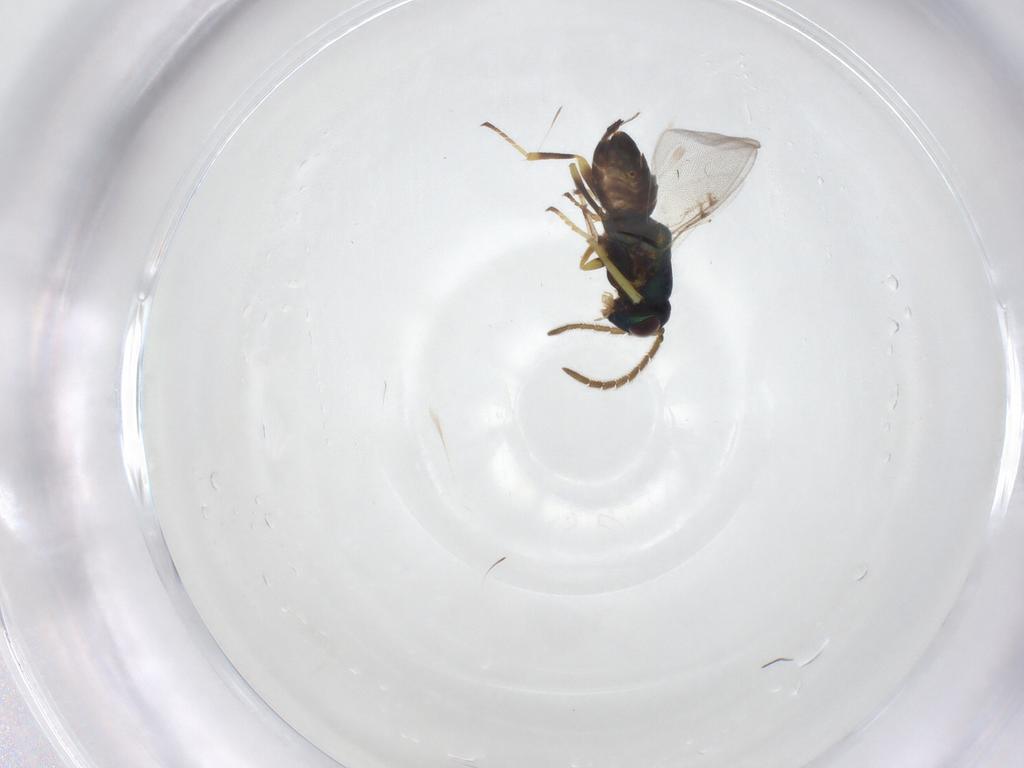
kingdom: Animalia
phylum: Arthropoda
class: Insecta
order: Hymenoptera
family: Encyrtidae
